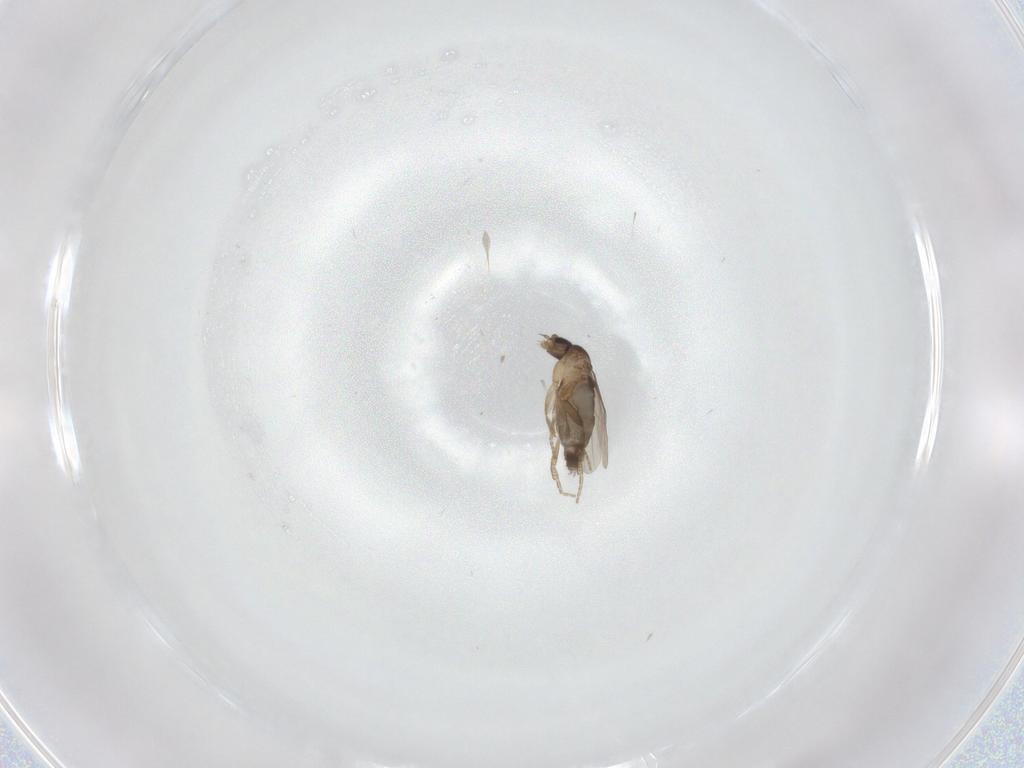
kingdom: Animalia
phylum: Arthropoda
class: Insecta
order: Diptera
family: Phoridae
